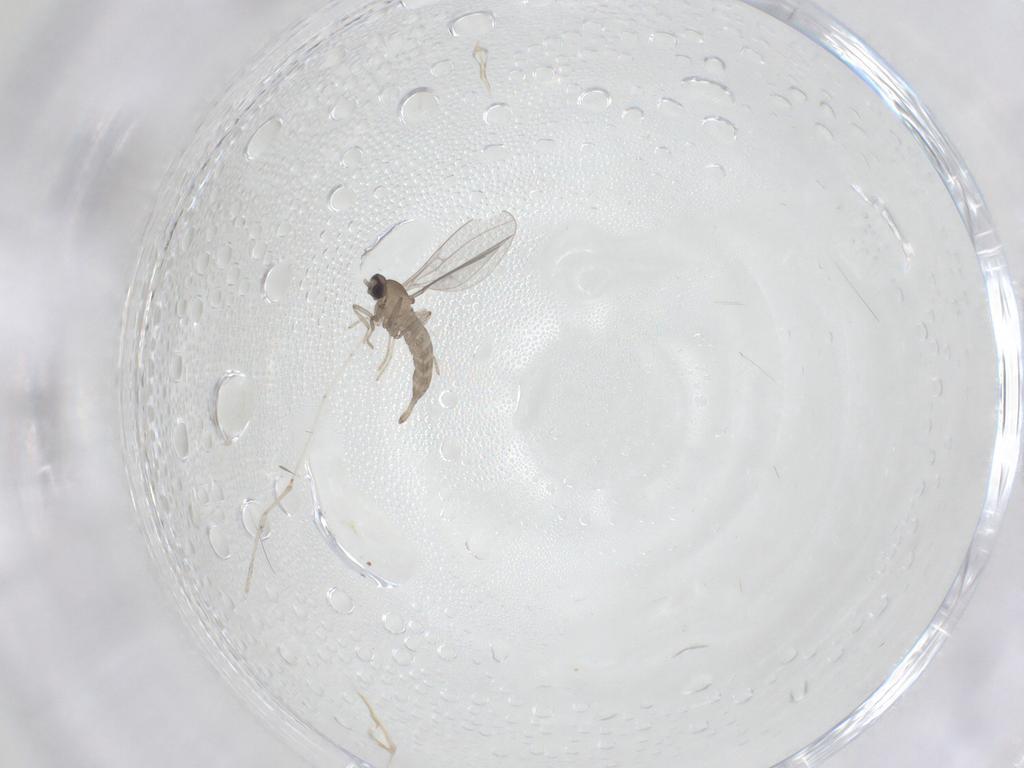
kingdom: Animalia
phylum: Arthropoda
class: Insecta
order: Diptera
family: Cecidomyiidae
